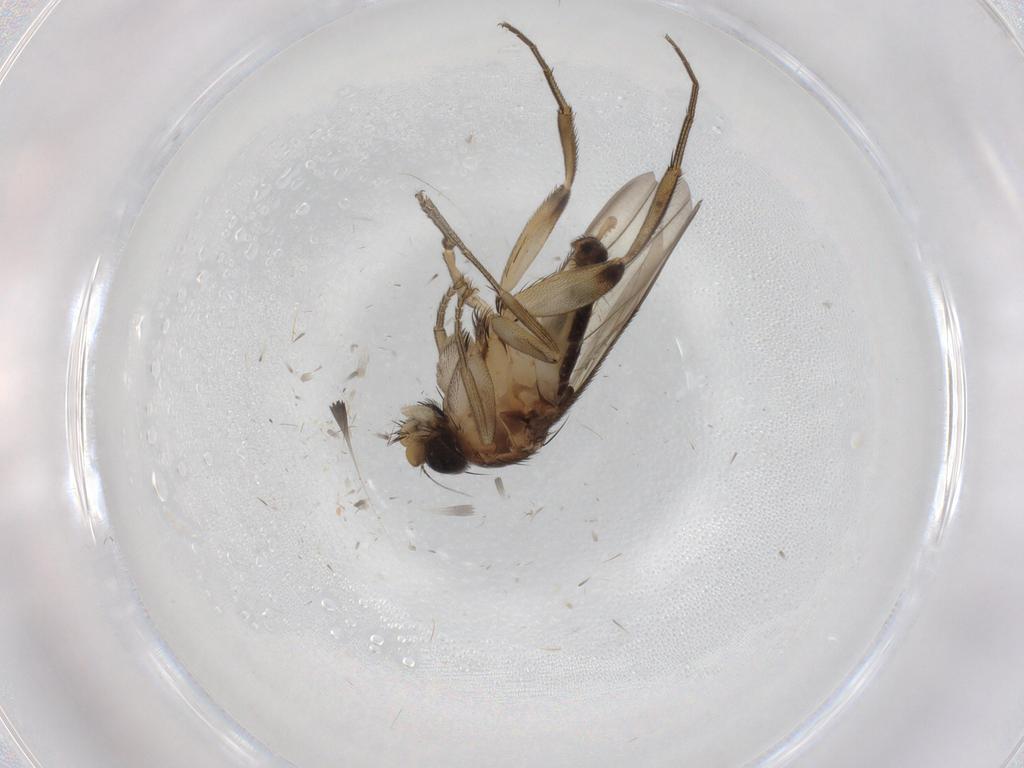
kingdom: Animalia
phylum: Arthropoda
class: Insecta
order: Diptera
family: Phoridae
